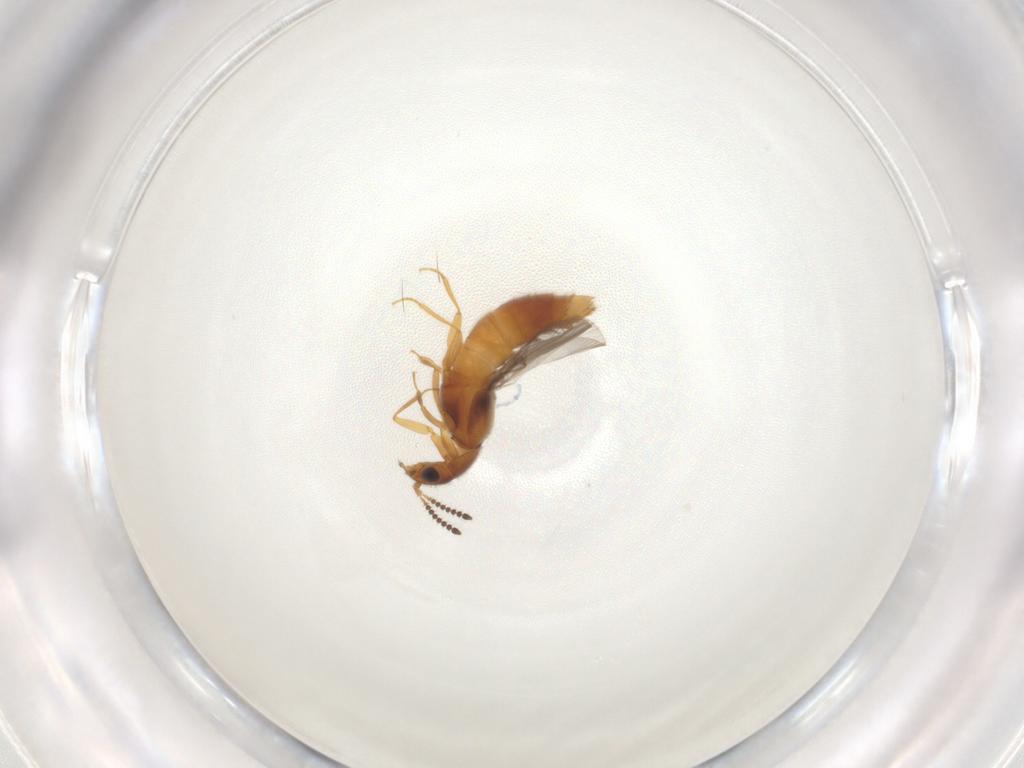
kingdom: Animalia
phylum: Arthropoda
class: Insecta
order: Coleoptera
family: Staphylinidae
